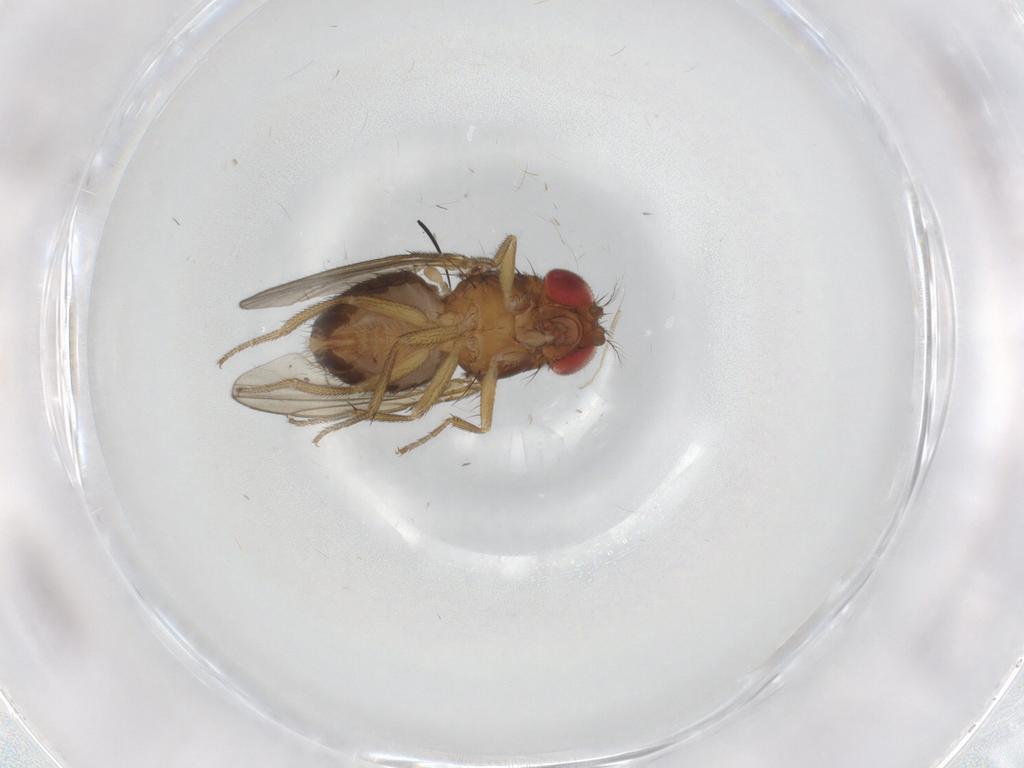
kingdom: Animalia
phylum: Arthropoda
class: Insecta
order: Diptera
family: Drosophilidae
